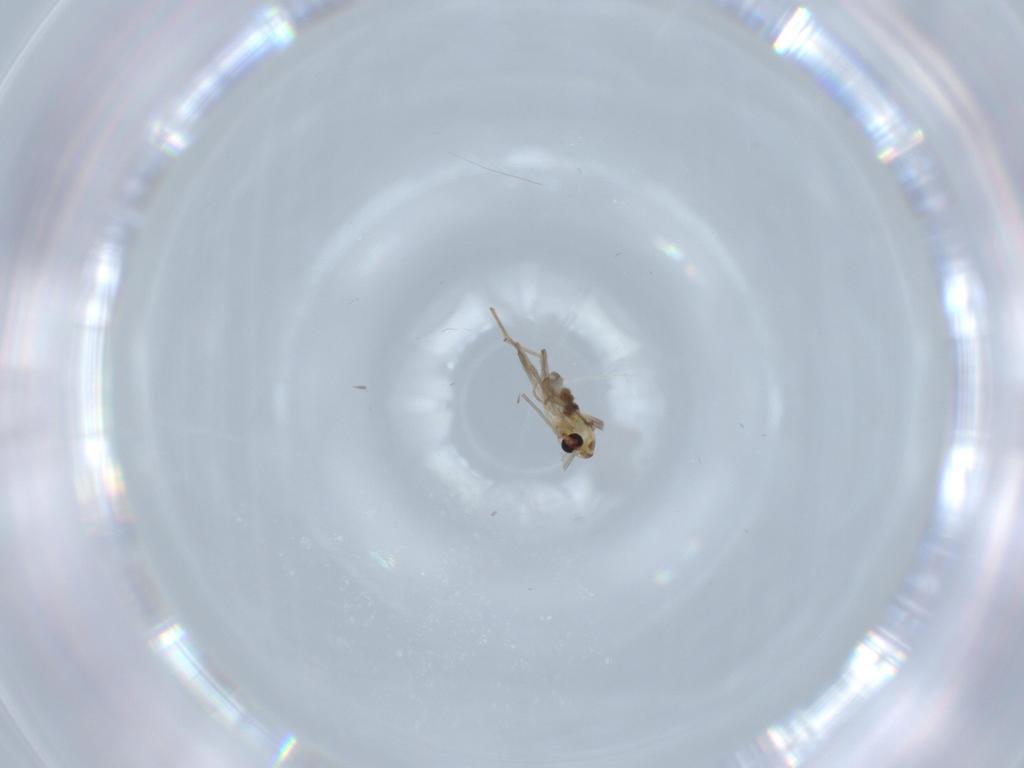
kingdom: Animalia
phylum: Arthropoda
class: Insecta
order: Diptera
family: Chironomidae
